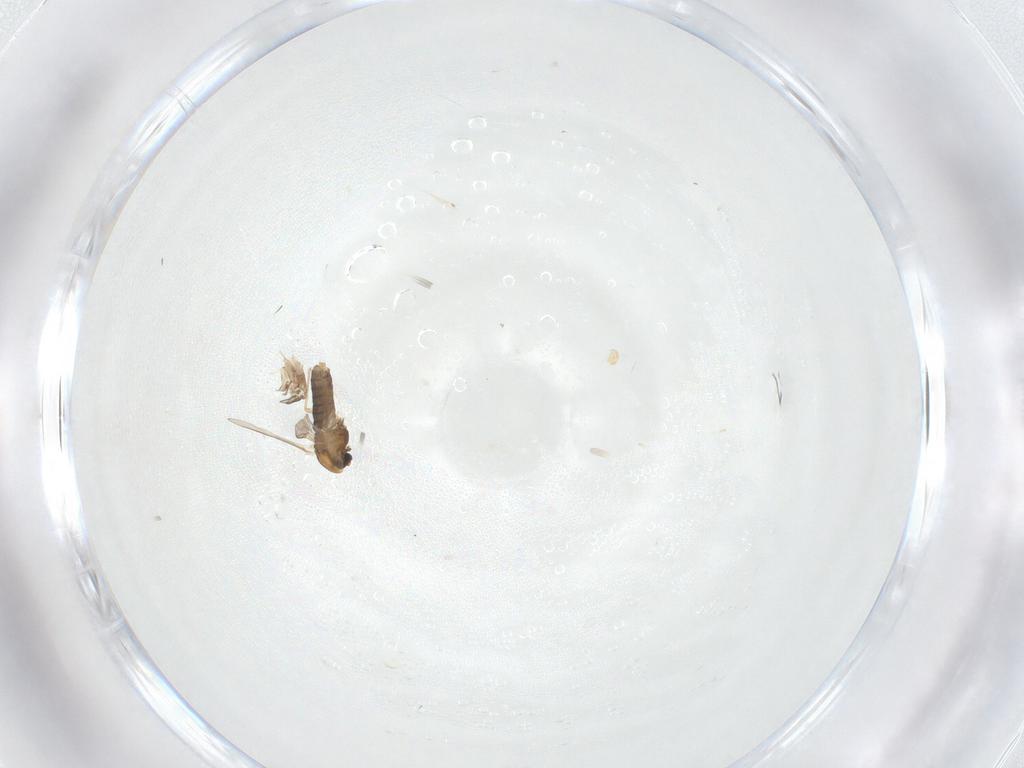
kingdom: Animalia
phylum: Arthropoda
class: Insecta
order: Diptera
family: Chironomidae
